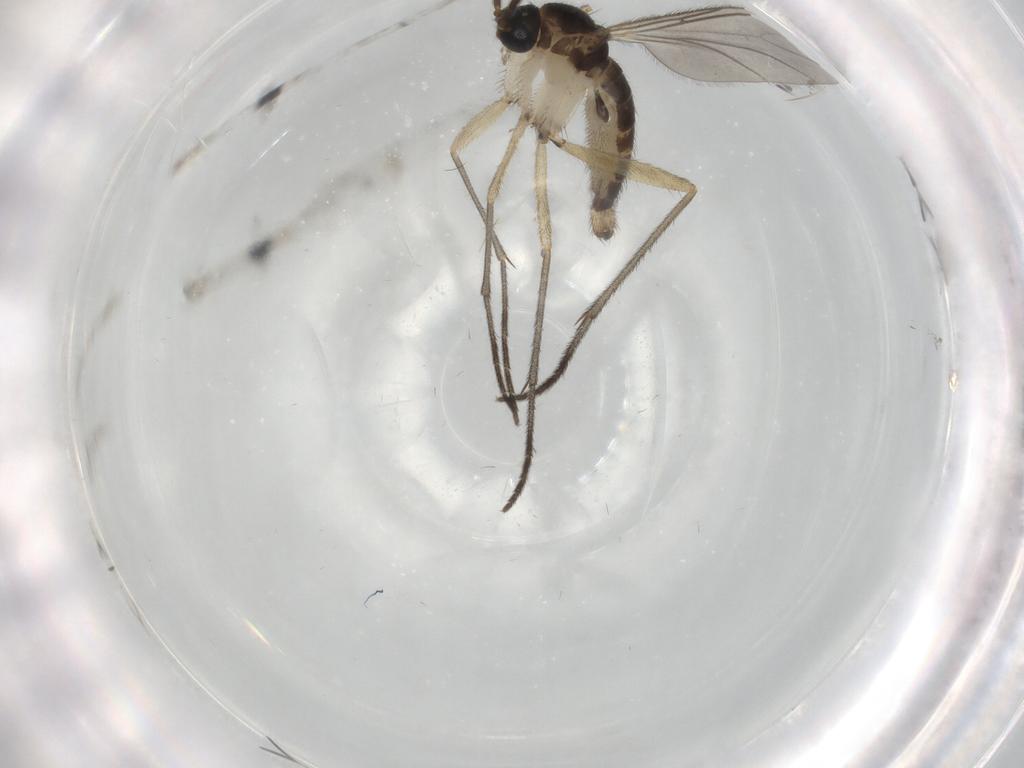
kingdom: Animalia
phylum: Arthropoda
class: Insecta
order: Diptera
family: Sciaridae
